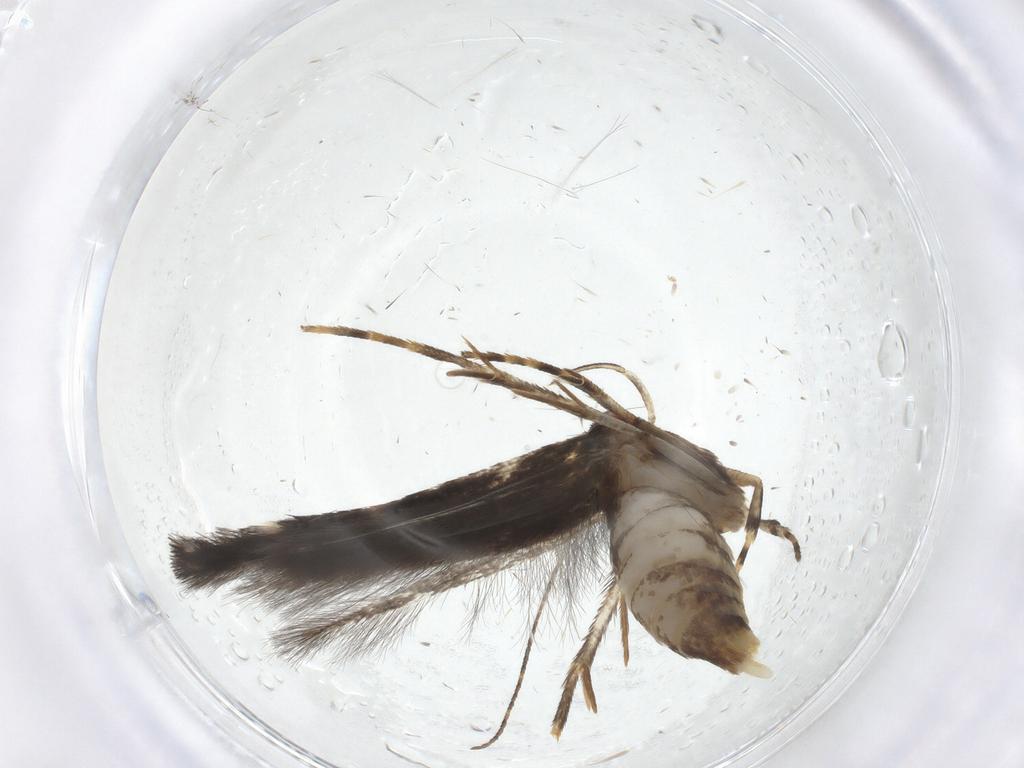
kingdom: Animalia
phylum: Arthropoda
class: Insecta
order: Lepidoptera
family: Cosmopterigidae
